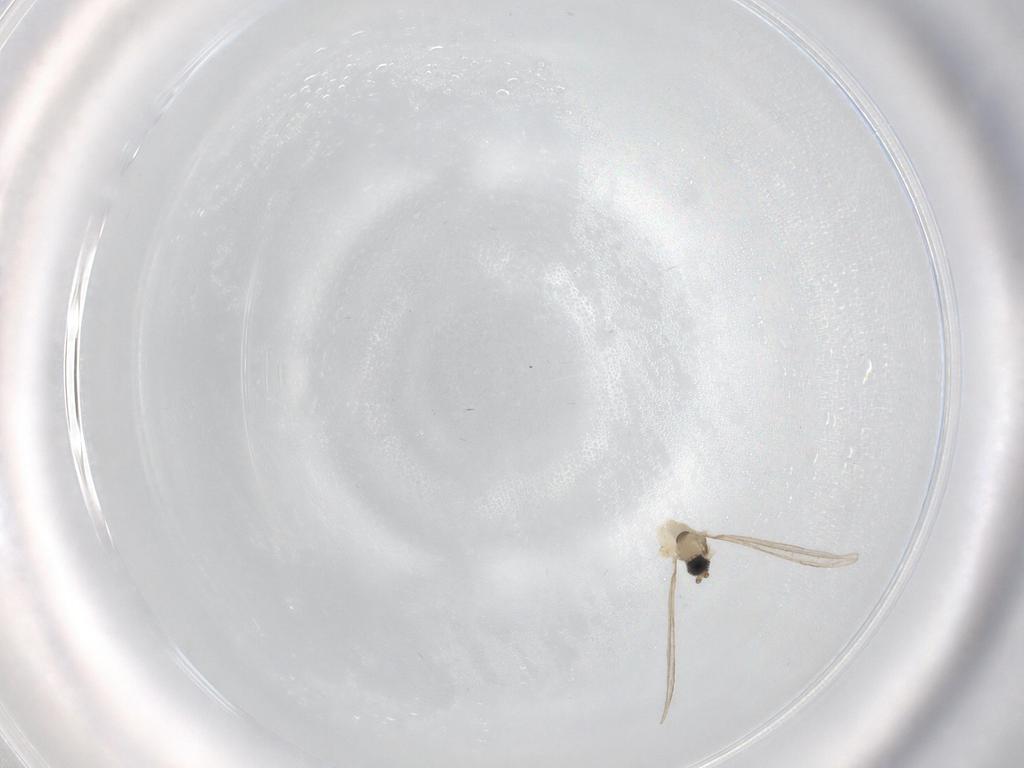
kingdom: Animalia
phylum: Arthropoda
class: Insecta
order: Diptera
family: Cecidomyiidae
